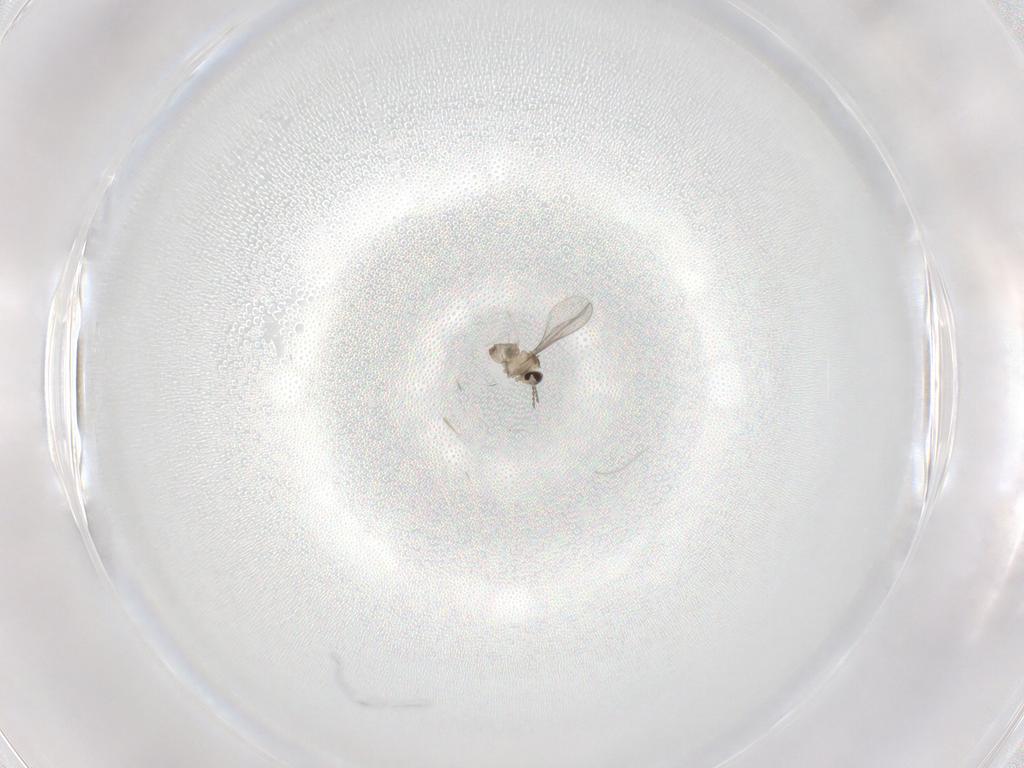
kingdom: Animalia
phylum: Arthropoda
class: Insecta
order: Diptera
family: Cecidomyiidae
